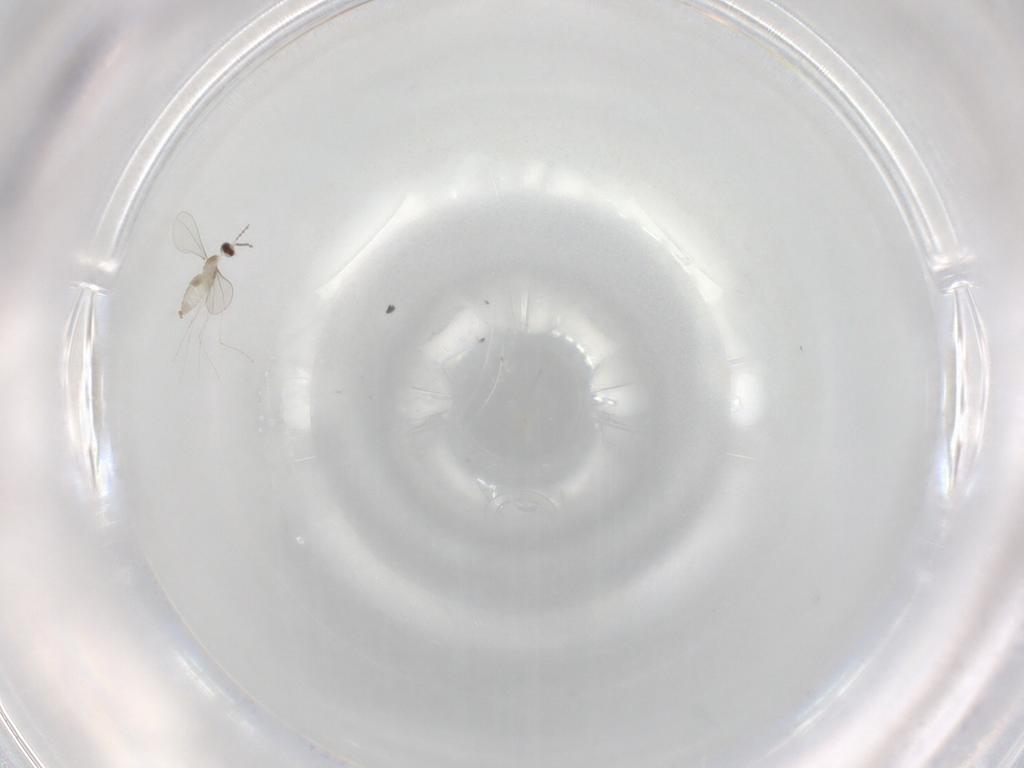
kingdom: Animalia
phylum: Arthropoda
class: Insecta
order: Diptera
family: Cecidomyiidae
